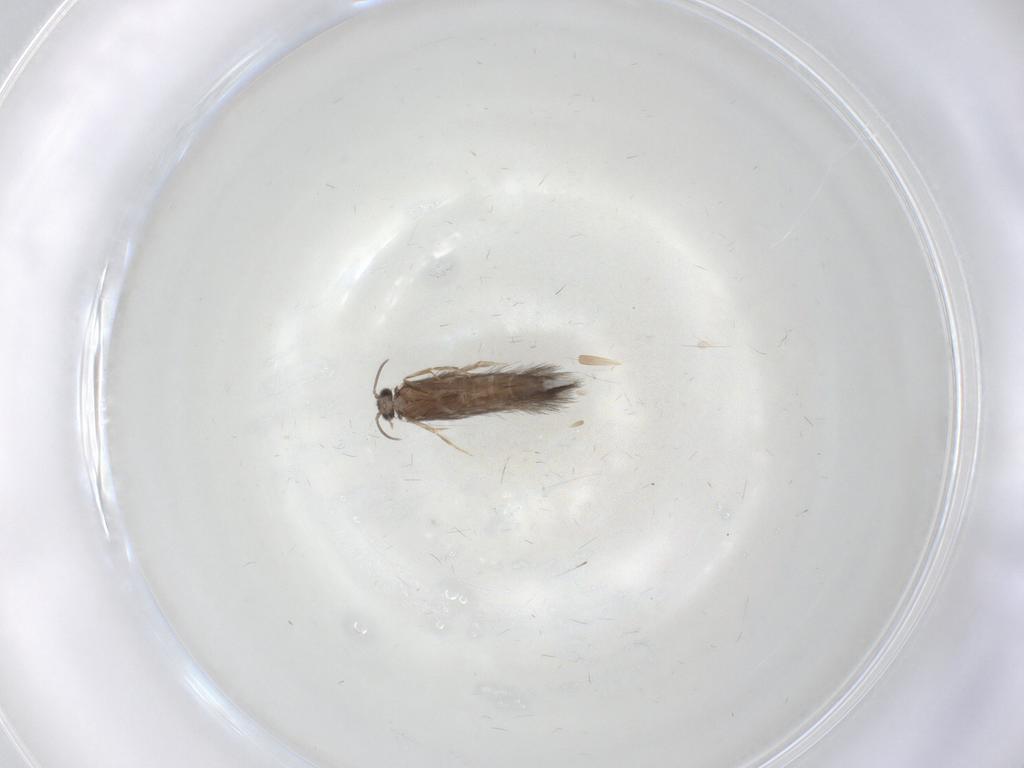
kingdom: Animalia
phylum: Arthropoda
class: Insecta
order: Trichoptera
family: Hydroptilidae
